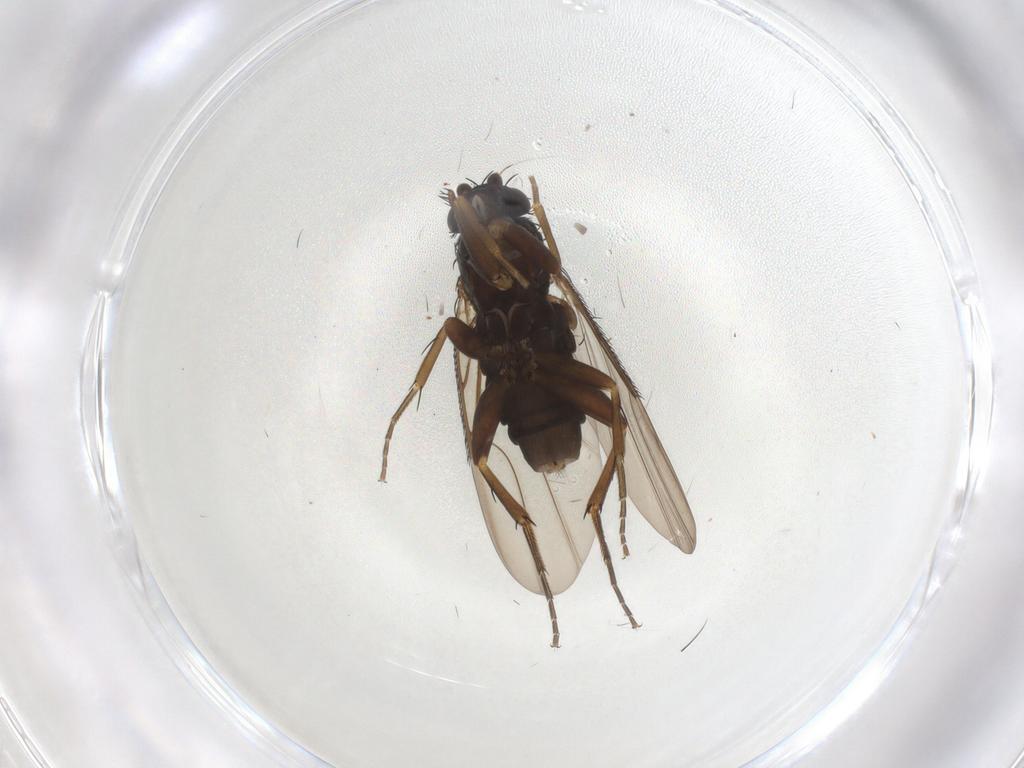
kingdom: Animalia
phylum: Arthropoda
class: Insecta
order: Diptera
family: Phoridae
